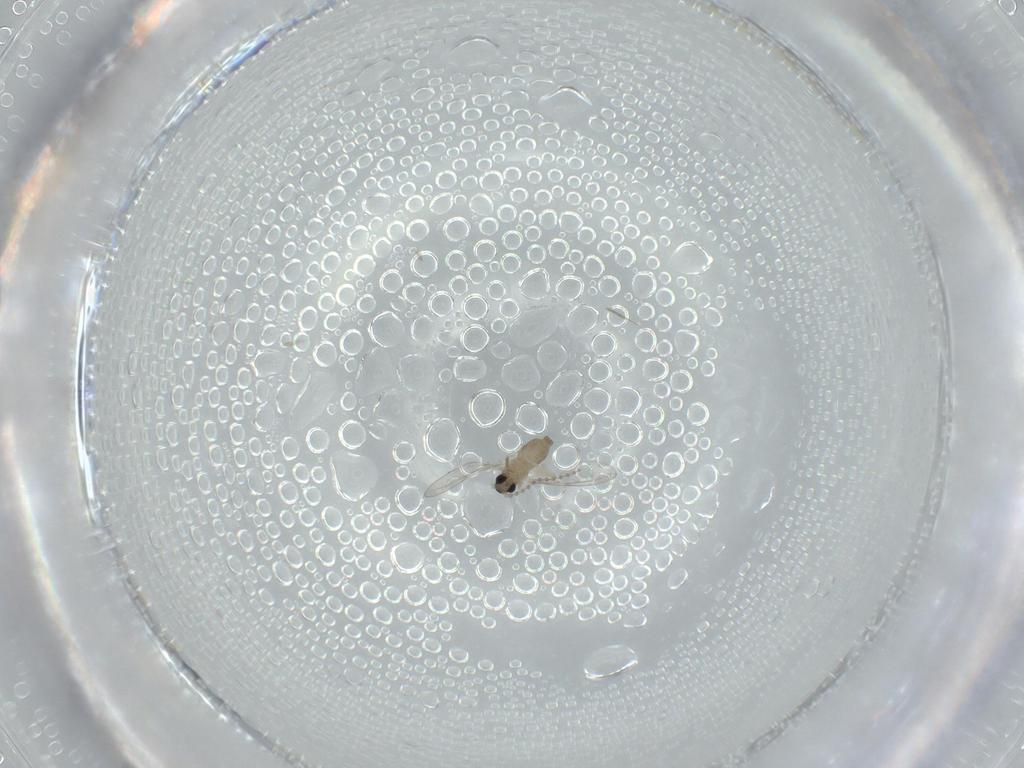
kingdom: Animalia
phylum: Arthropoda
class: Insecta
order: Diptera
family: Cecidomyiidae
